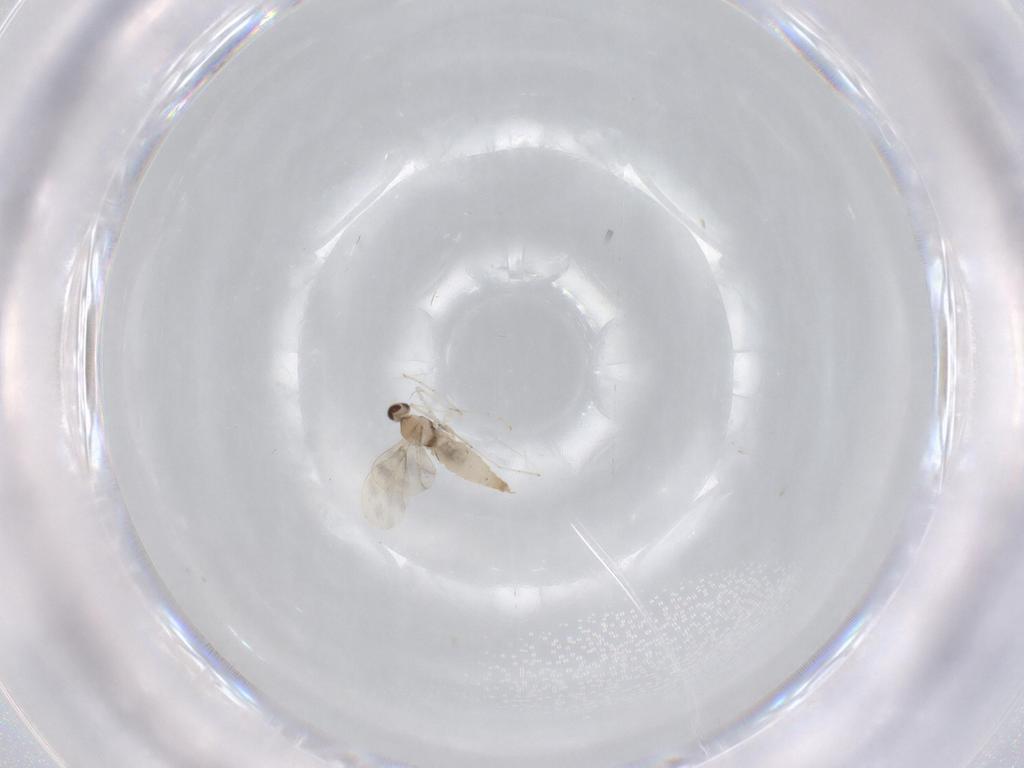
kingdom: Animalia
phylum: Arthropoda
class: Insecta
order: Diptera
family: Cecidomyiidae
